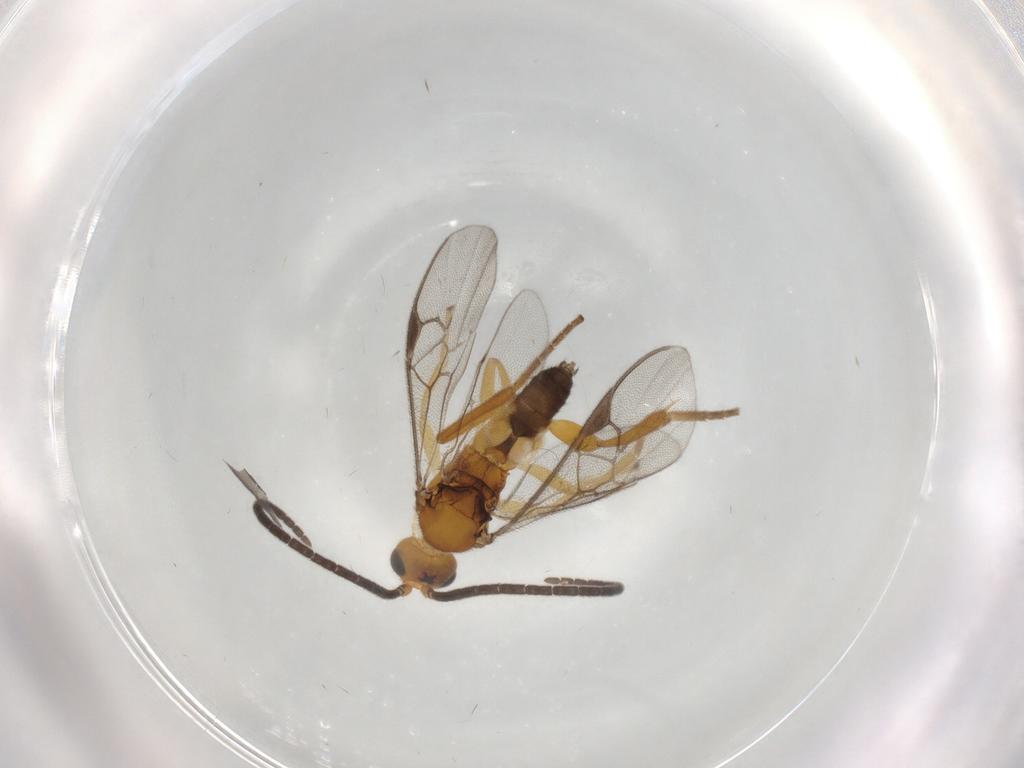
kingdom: Animalia
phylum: Arthropoda
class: Insecta
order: Hymenoptera
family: Braconidae
